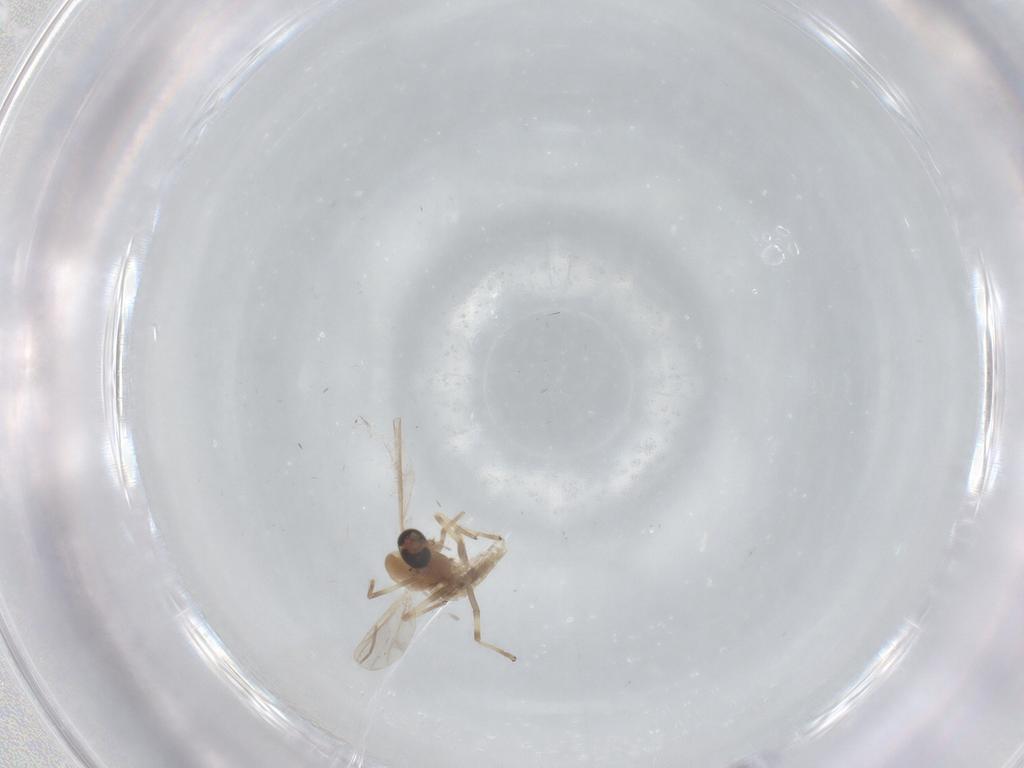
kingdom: Animalia
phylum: Arthropoda
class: Insecta
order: Diptera
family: Chironomidae
